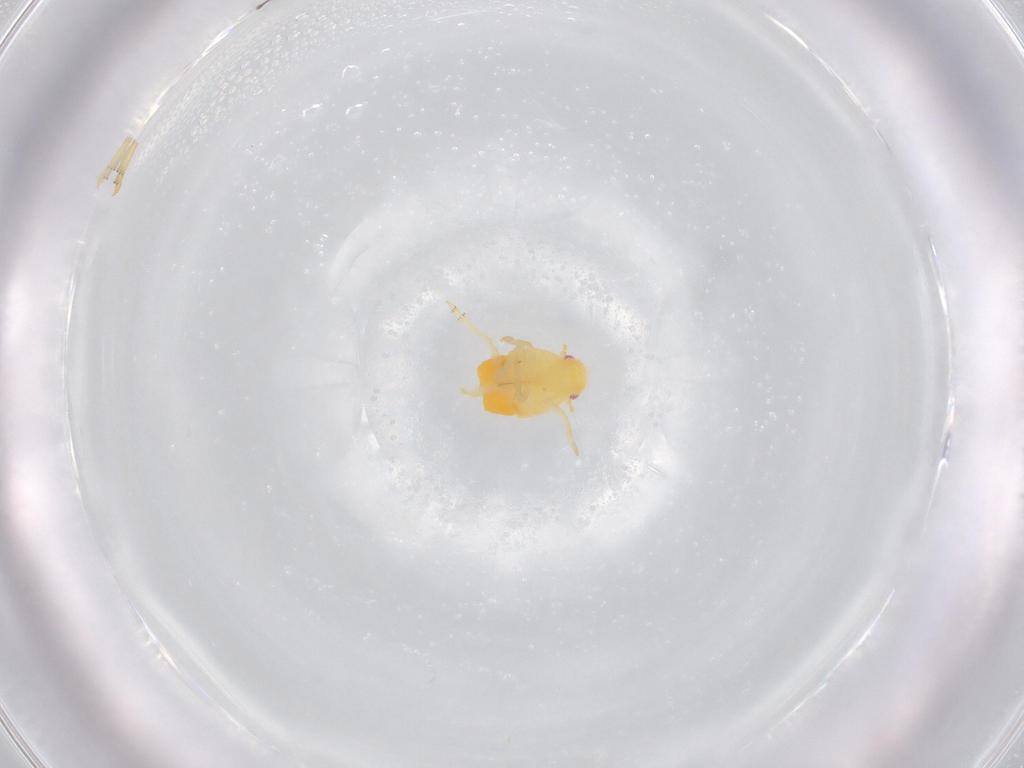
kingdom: Animalia
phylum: Arthropoda
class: Insecta
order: Hemiptera
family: Flatidae
